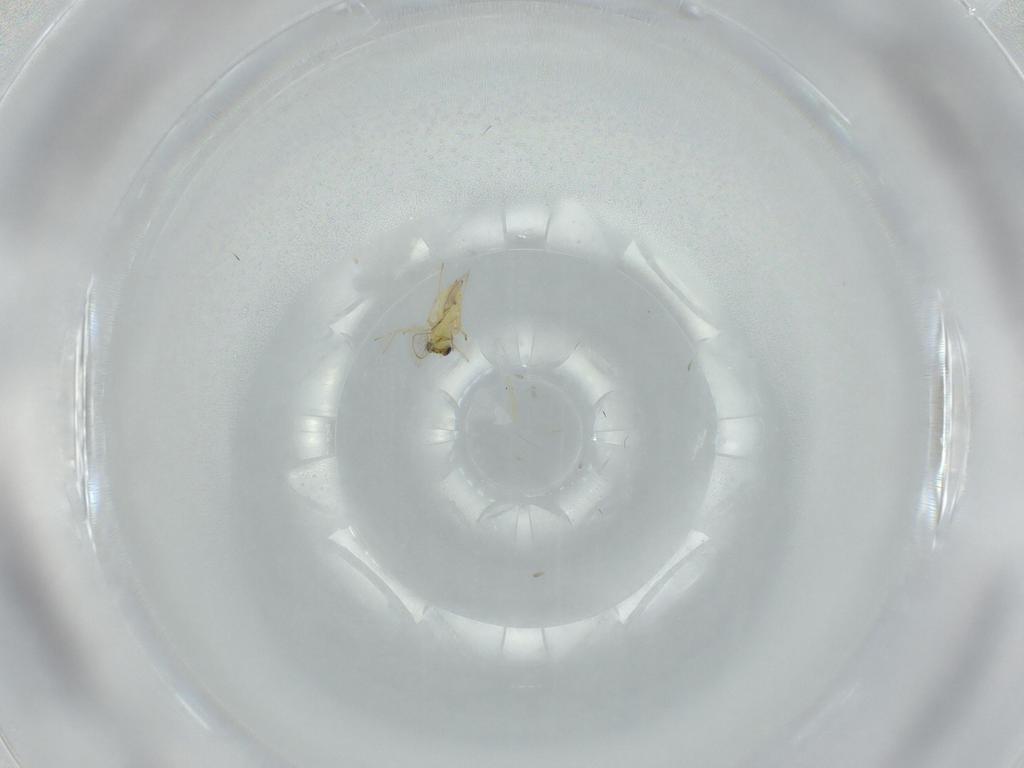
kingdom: Animalia
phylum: Arthropoda
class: Insecta
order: Hymenoptera
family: Trichogrammatidae
